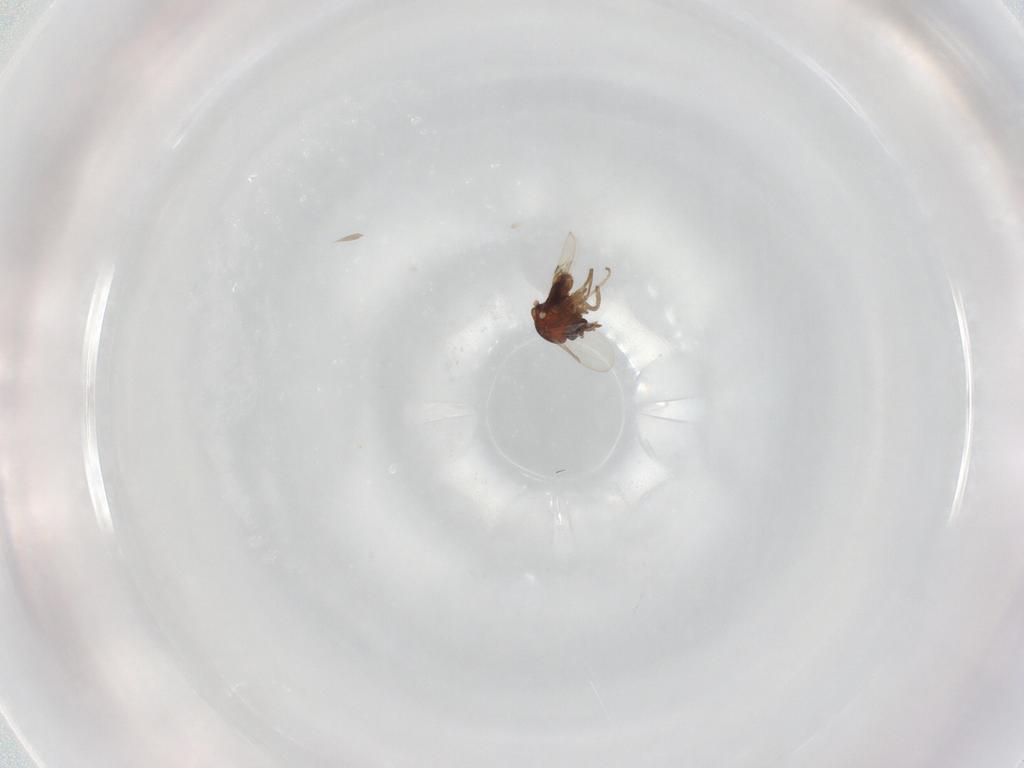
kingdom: Animalia
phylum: Arthropoda
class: Insecta
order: Diptera
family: Ceratopogonidae
